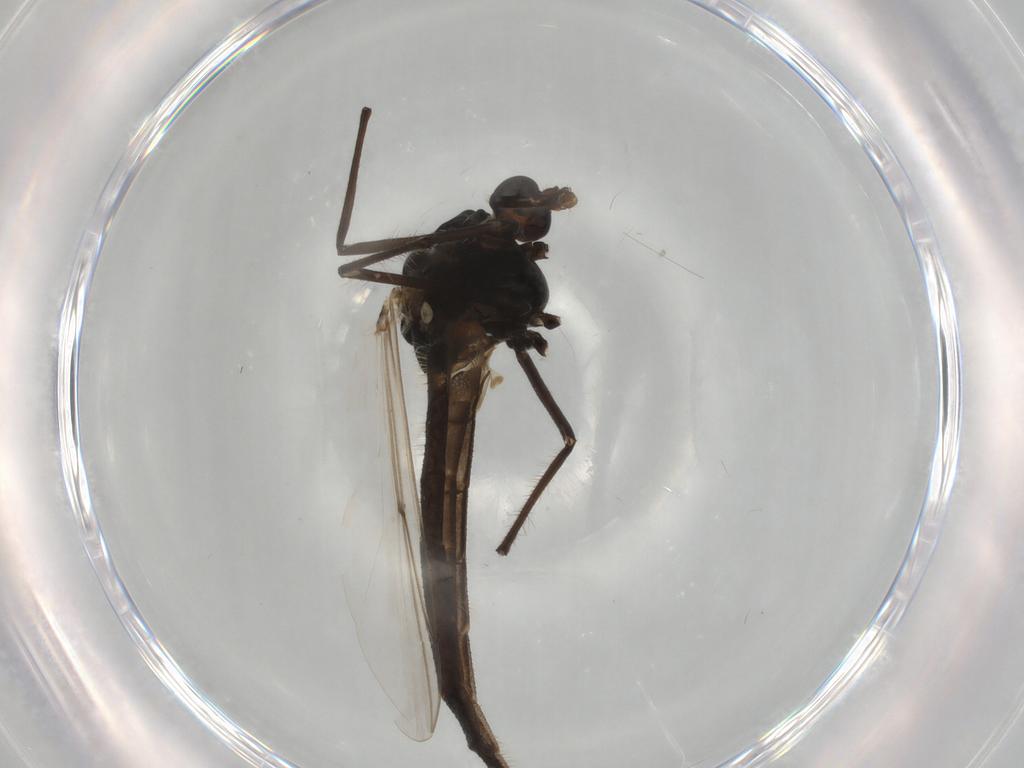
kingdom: Animalia
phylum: Arthropoda
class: Insecta
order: Diptera
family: Chironomidae
